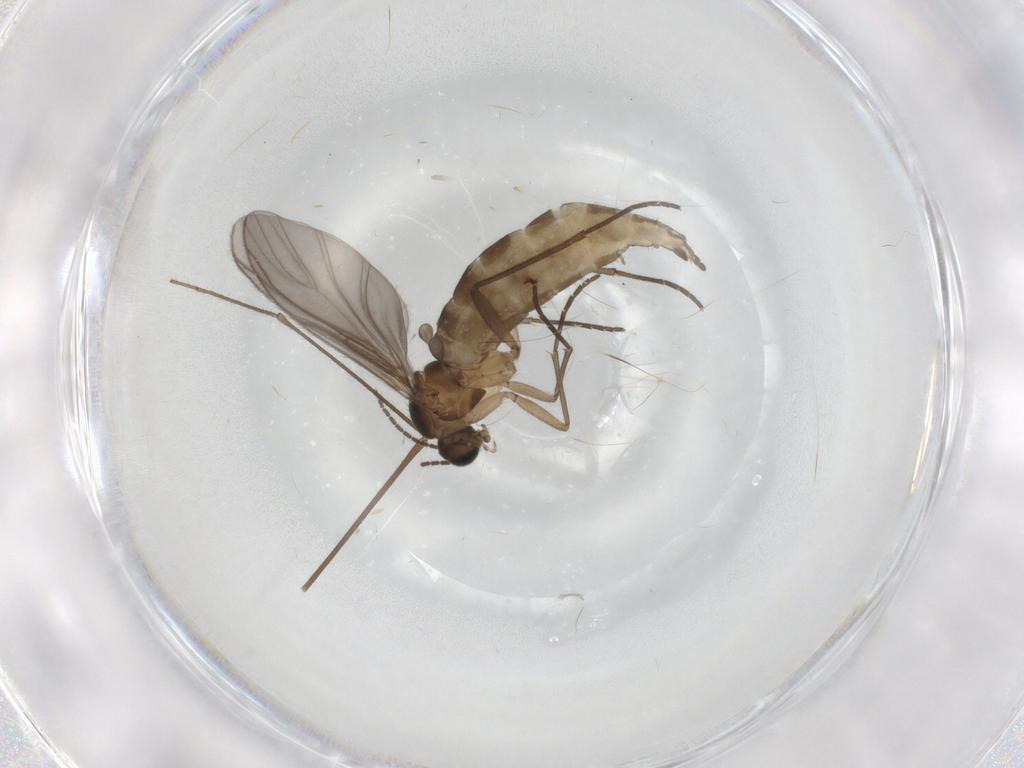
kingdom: Animalia
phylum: Arthropoda
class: Insecta
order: Diptera
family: Limoniidae
